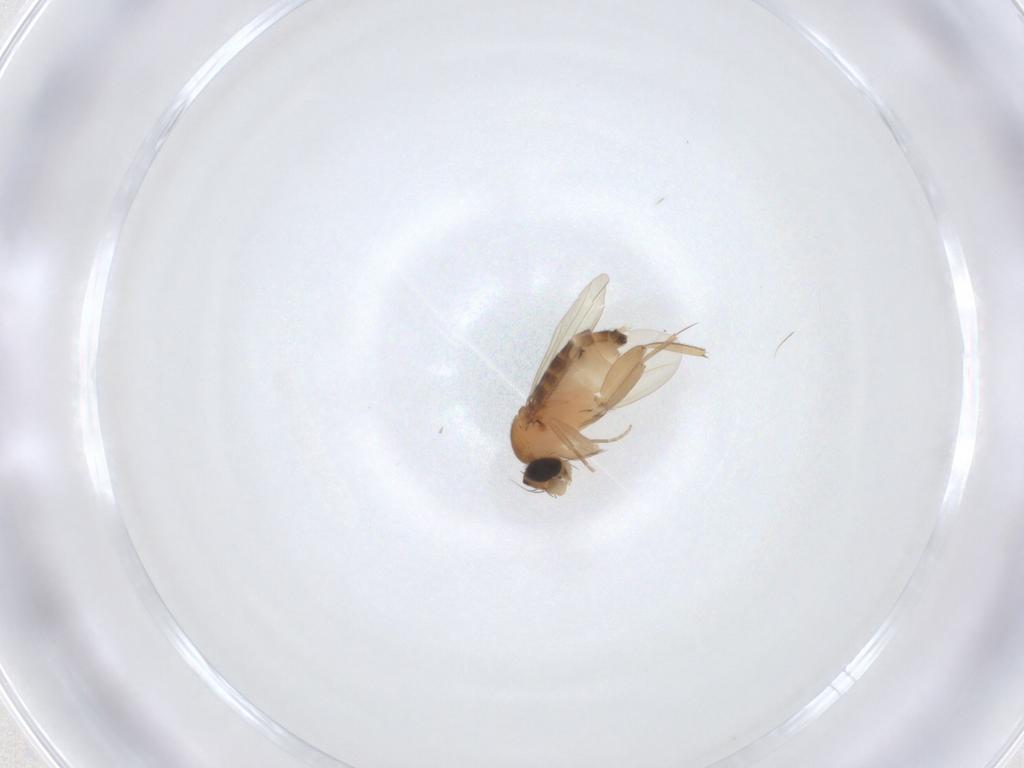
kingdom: Animalia
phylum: Arthropoda
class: Insecta
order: Diptera
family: Phoridae
